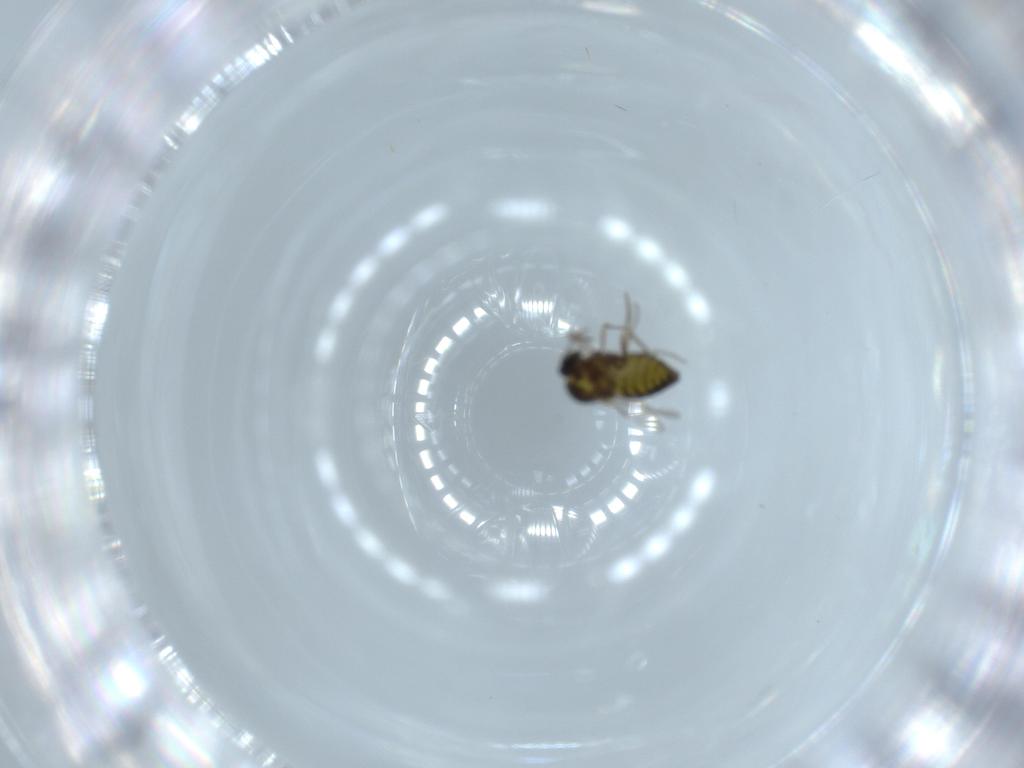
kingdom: Animalia
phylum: Arthropoda
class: Insecta
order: Diptera
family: Ceratopogonidae
